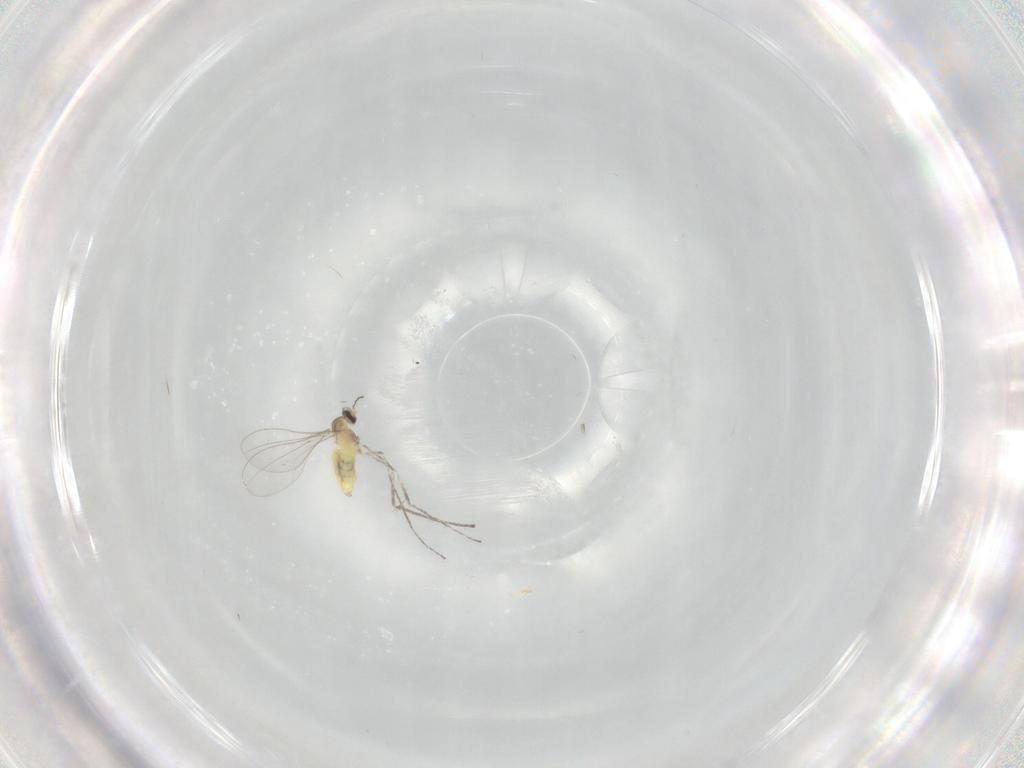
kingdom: Animalia
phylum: Arthropoda
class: Insecta
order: Diptera
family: Cecidomyiidae
